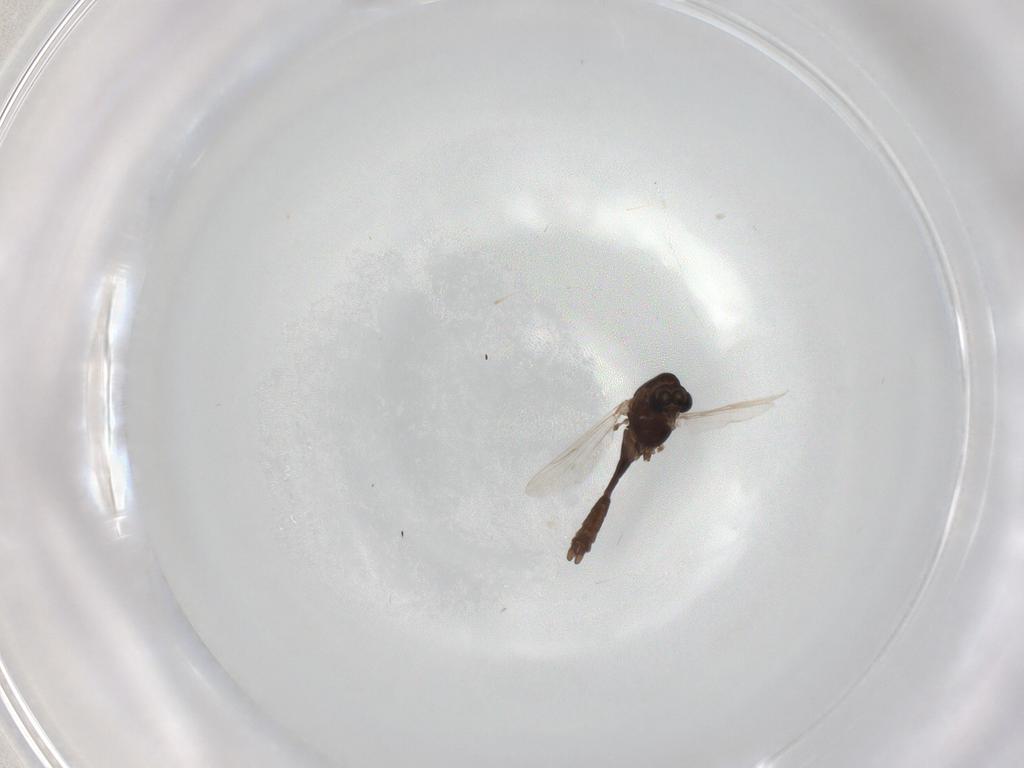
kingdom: Animalia
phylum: Arthropoda
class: Insecta
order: Diptera
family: Chironomidae
